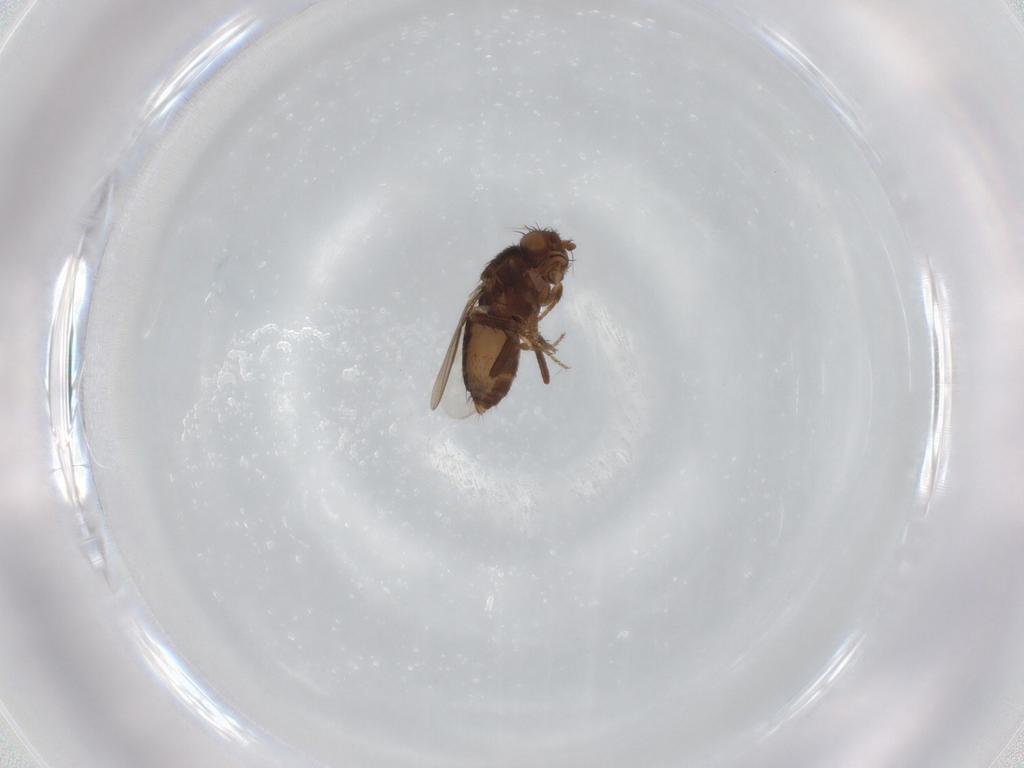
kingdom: Animalia
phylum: Arthropoda
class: Insecta
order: Diptera
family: Sphaeroceridae
